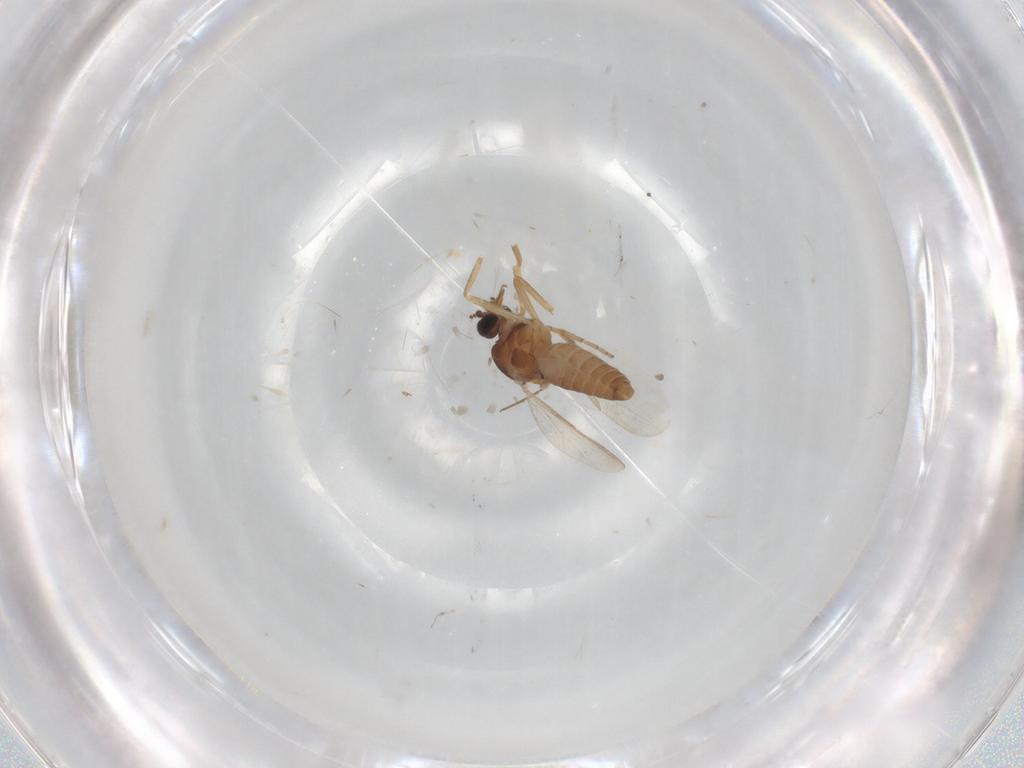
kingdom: Animalia
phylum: Arthropoda
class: Insecta
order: Diptera
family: Ceratopogonidae
